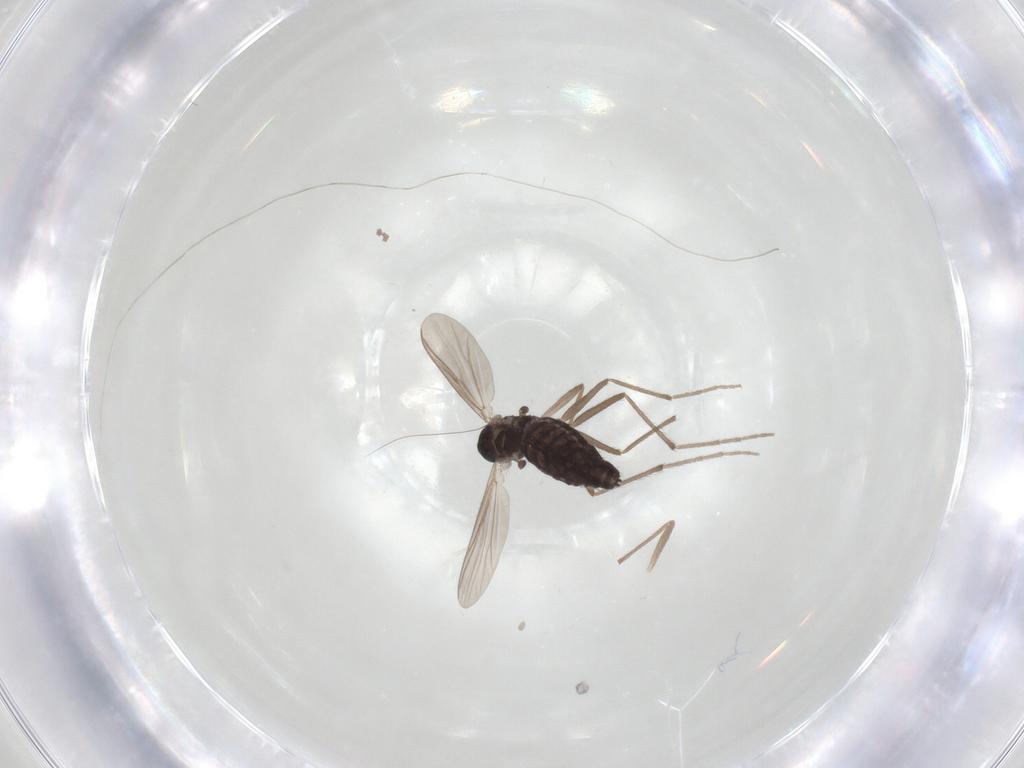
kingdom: Animalia
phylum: Arthropoda
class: Insecta
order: Diptera
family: Chironomidae
